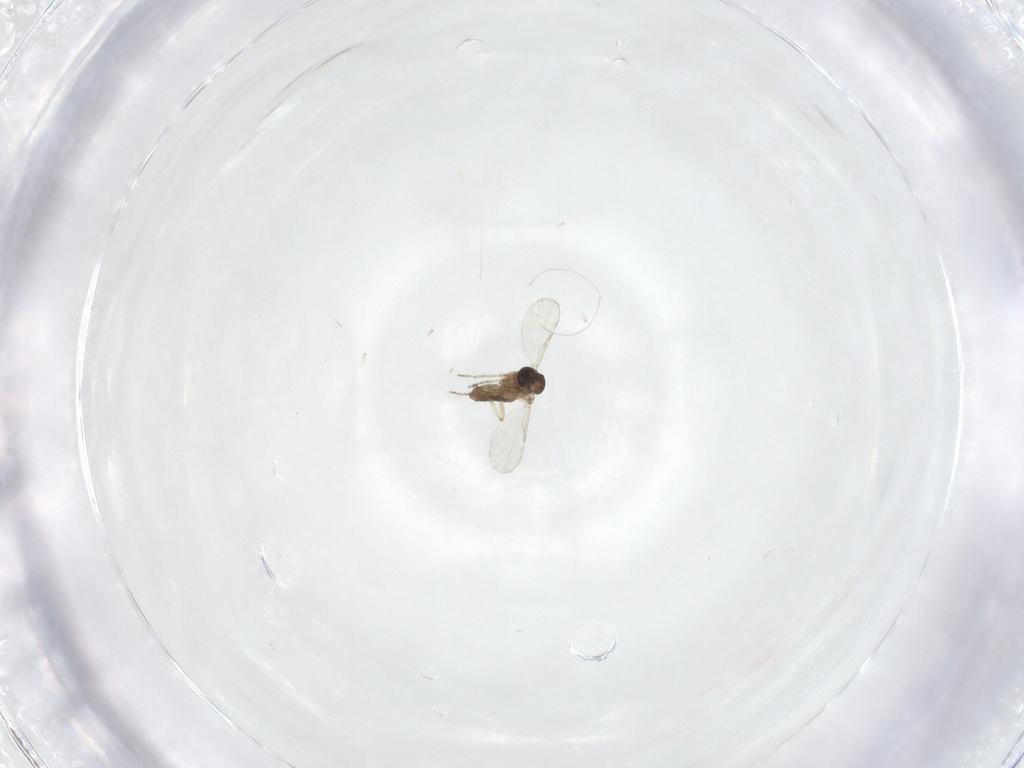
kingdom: Animalia
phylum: Arthropoda
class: Insecta
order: Diptera
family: Ceratopogonidae
